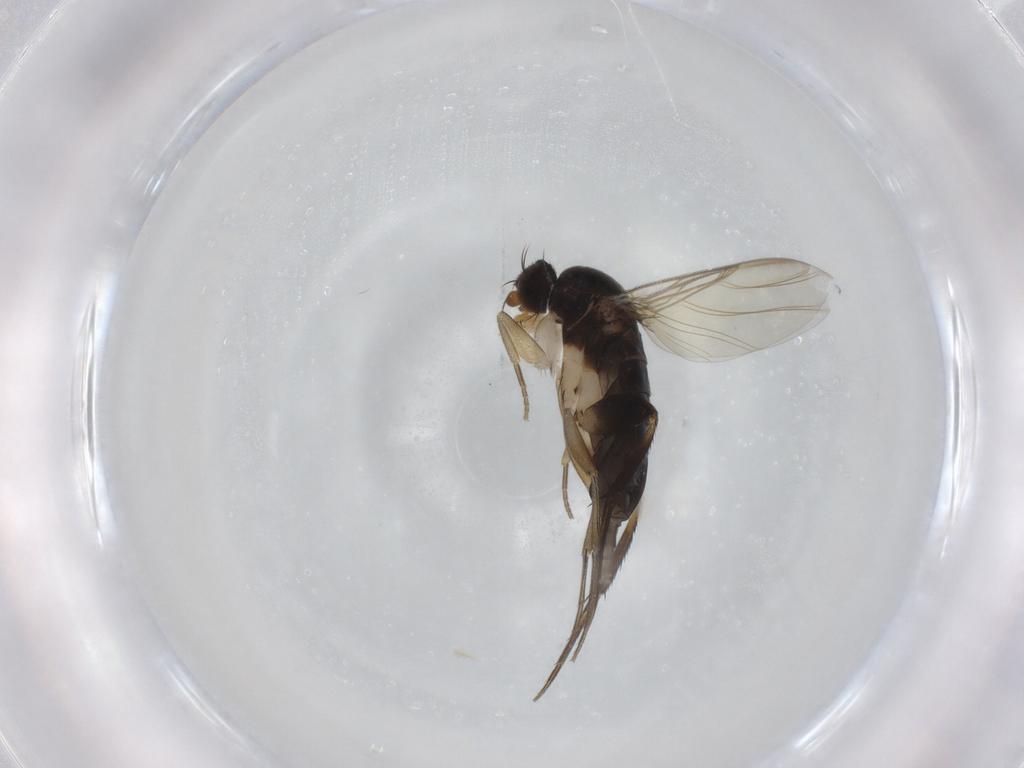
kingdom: Animalia
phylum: Arthropoda
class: Insecta
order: Diptera
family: Phoridae
